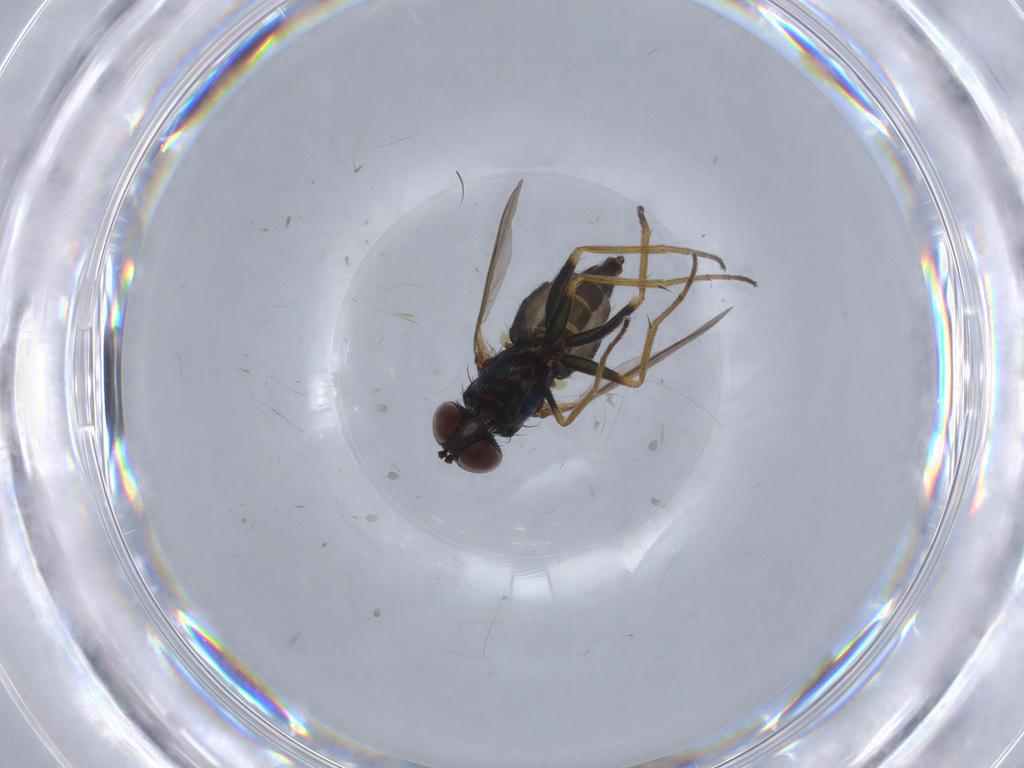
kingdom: Animalia
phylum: Arthropoda
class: Insecta
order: Diptera
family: Dolichopodidae
